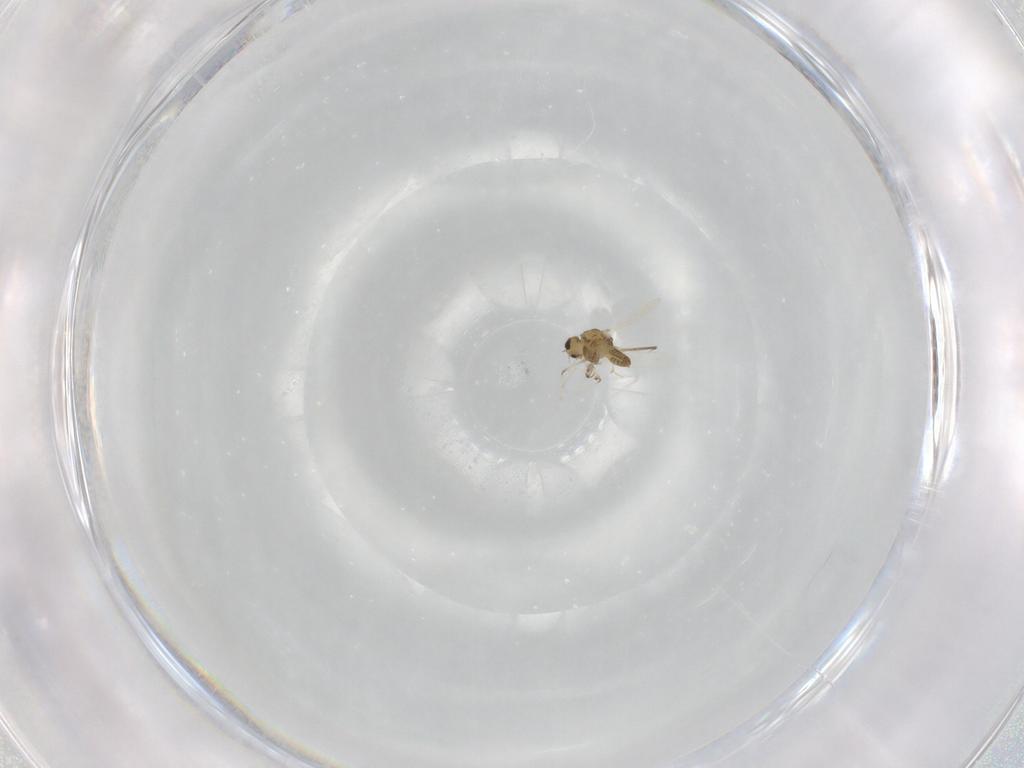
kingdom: Animalia
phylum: Arthropoda
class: Insecta
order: Diptera
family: Chironomidae
